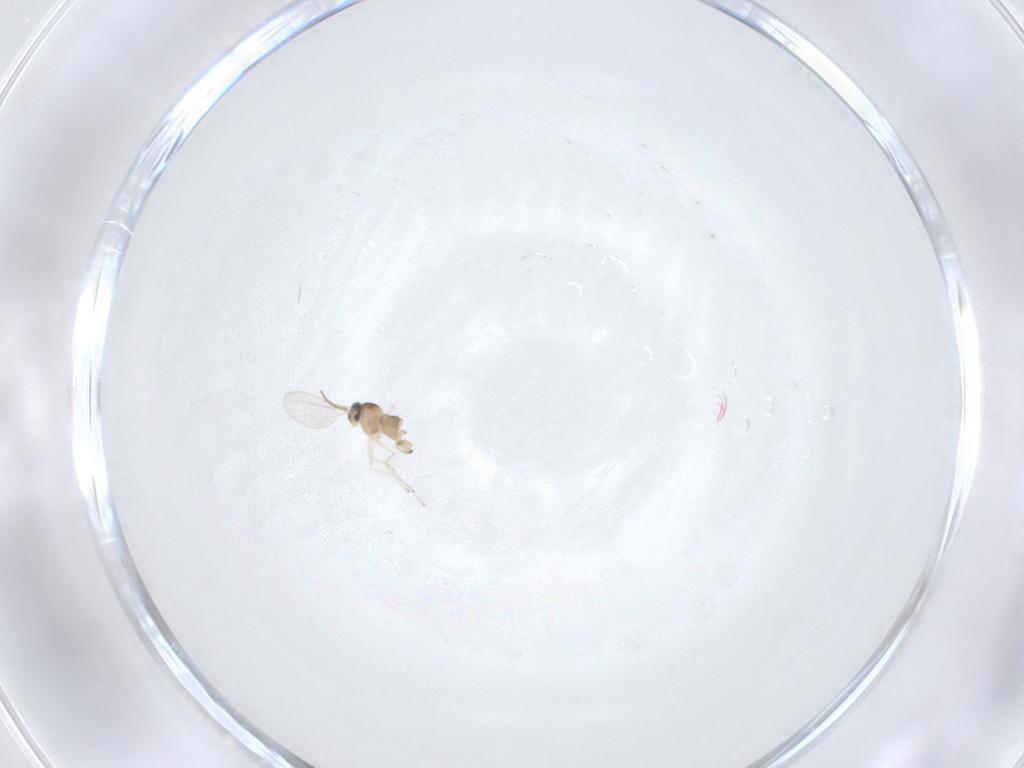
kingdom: Animalia
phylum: Arthropoda
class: Insecta
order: Diptera
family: Cecidomyiidae
